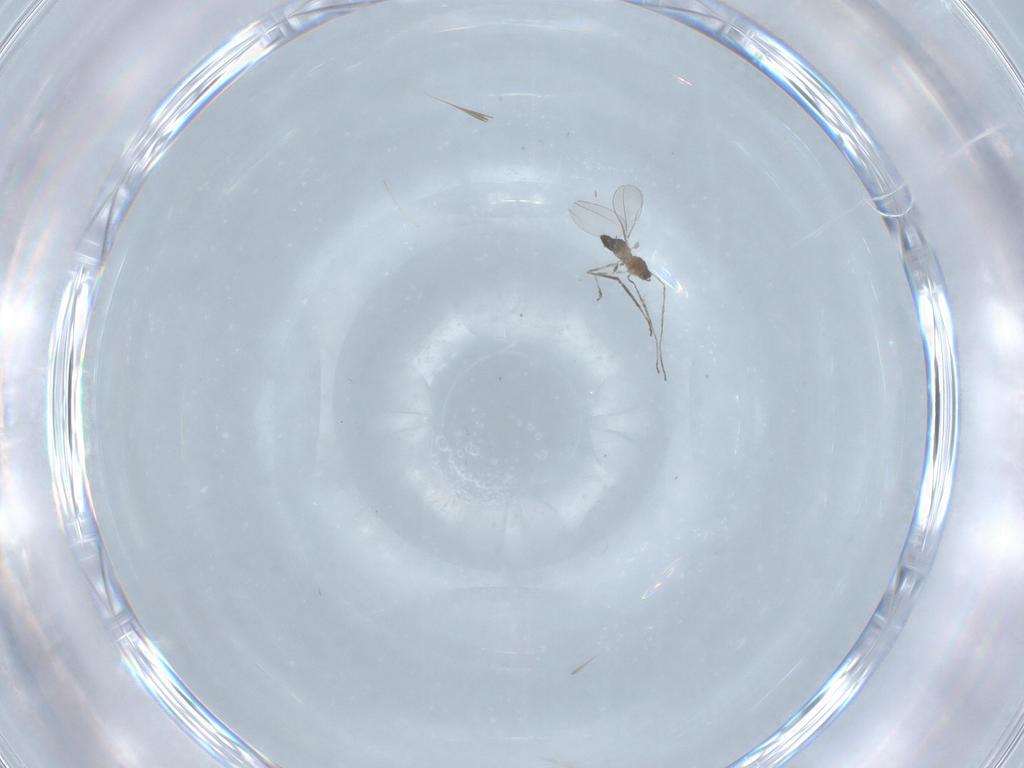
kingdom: Animalia
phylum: Arthropoda
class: Insecta
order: Diptera
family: Cecidomyiidae
